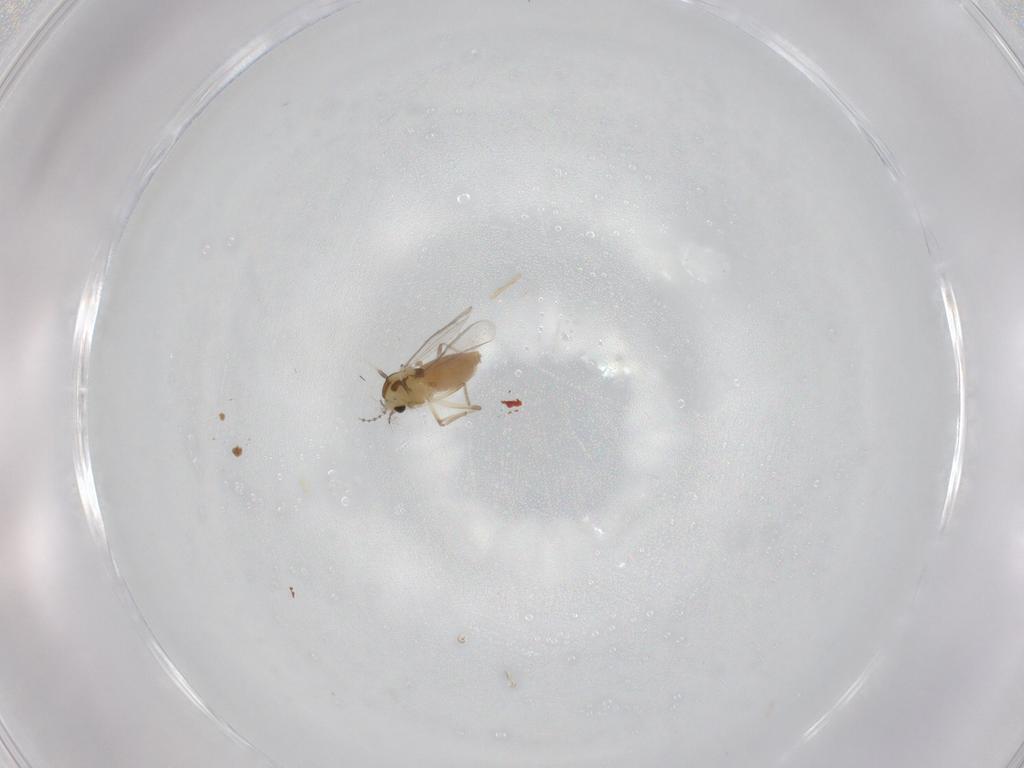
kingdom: Animalia
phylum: Arthropoda
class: Insecta
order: Diptera
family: Chironomidae
